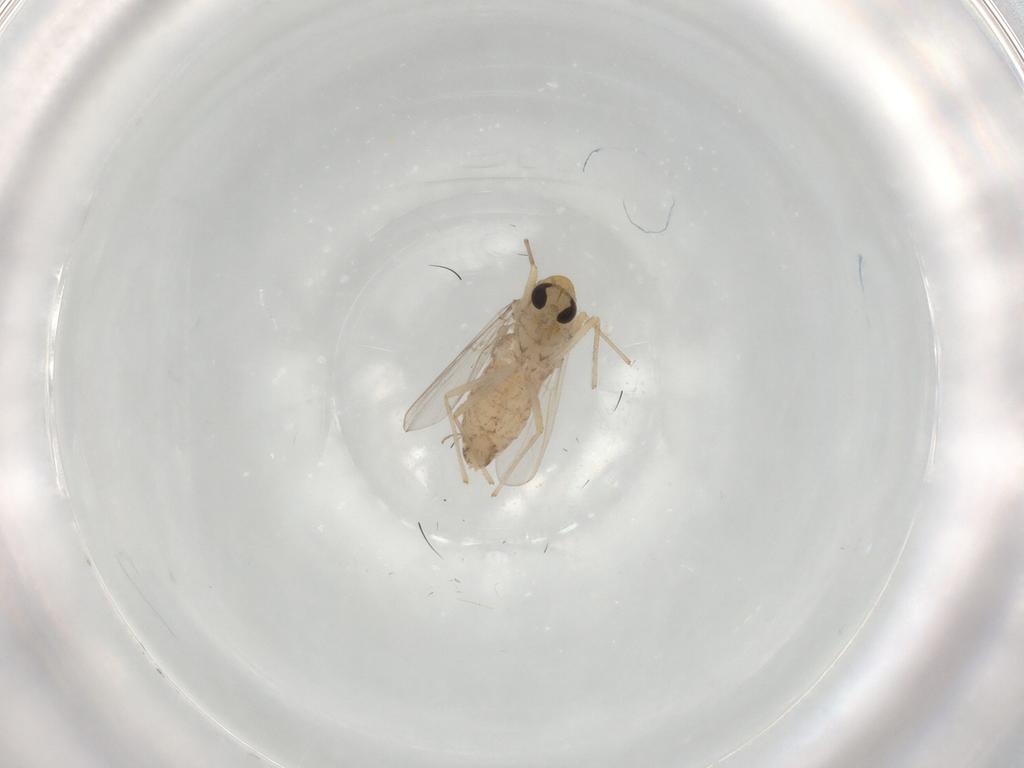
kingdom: Animalia
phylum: Arthropoda
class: Insecta
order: Diptera
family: Chironomidae
